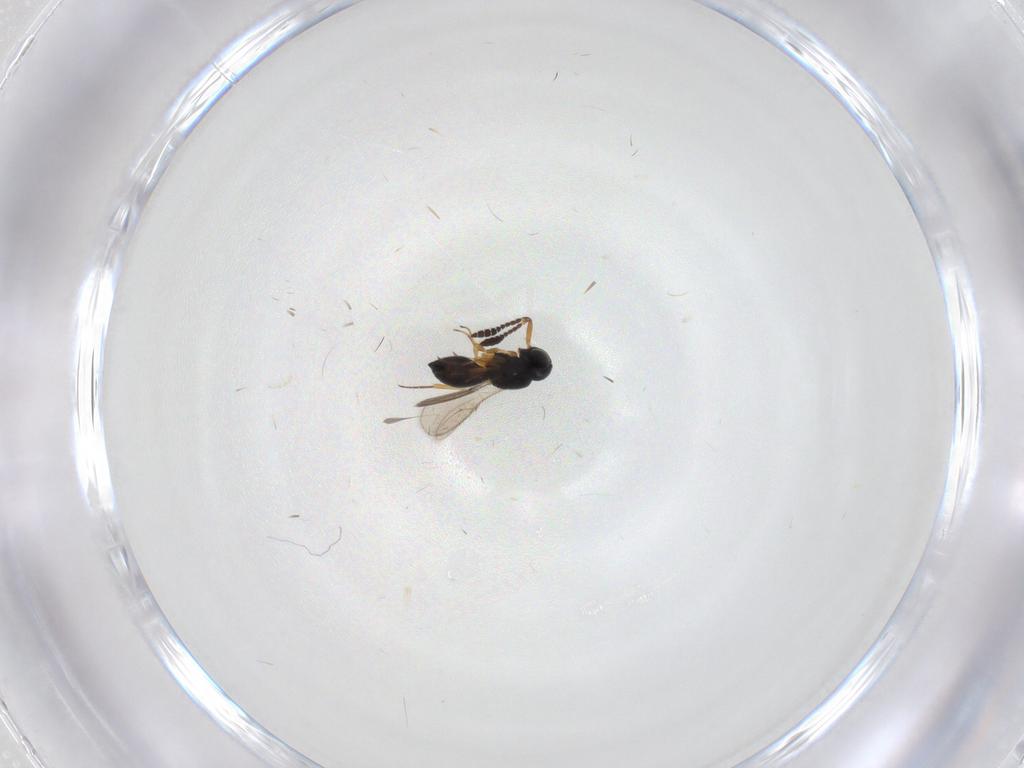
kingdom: Animalia
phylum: Arthropoda
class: Insecta
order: Hymenoptera
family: Scelionidae
